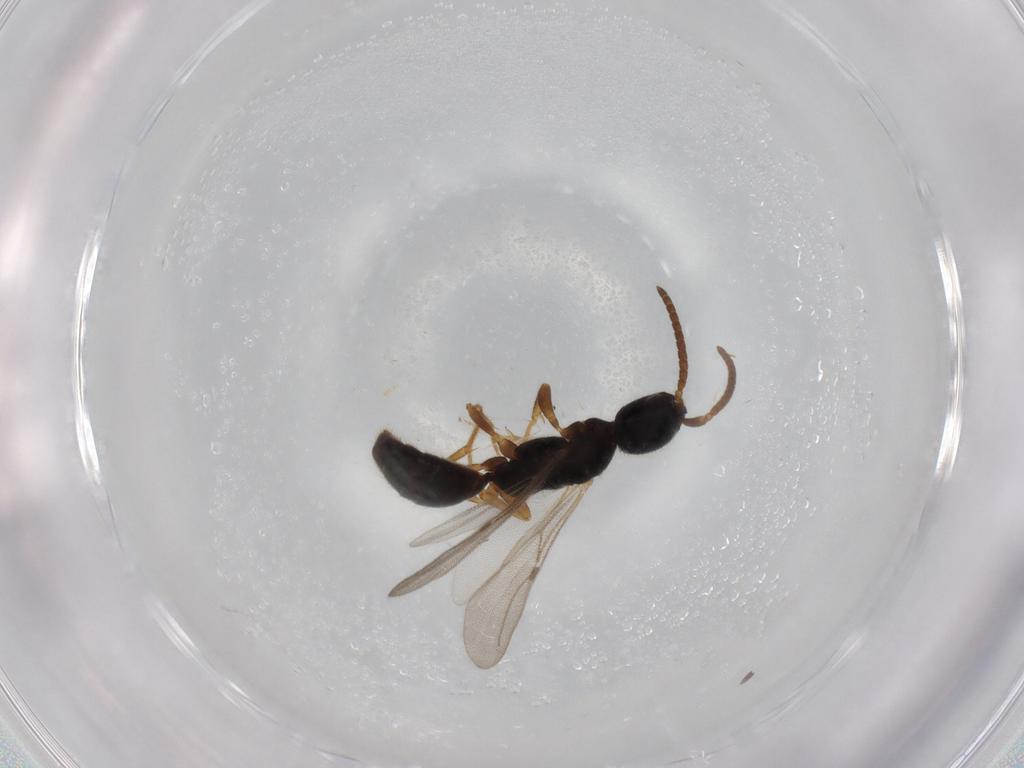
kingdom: Animalia
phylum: Arthropoda
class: Insecta
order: Hymenoptera
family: Bethylidae
